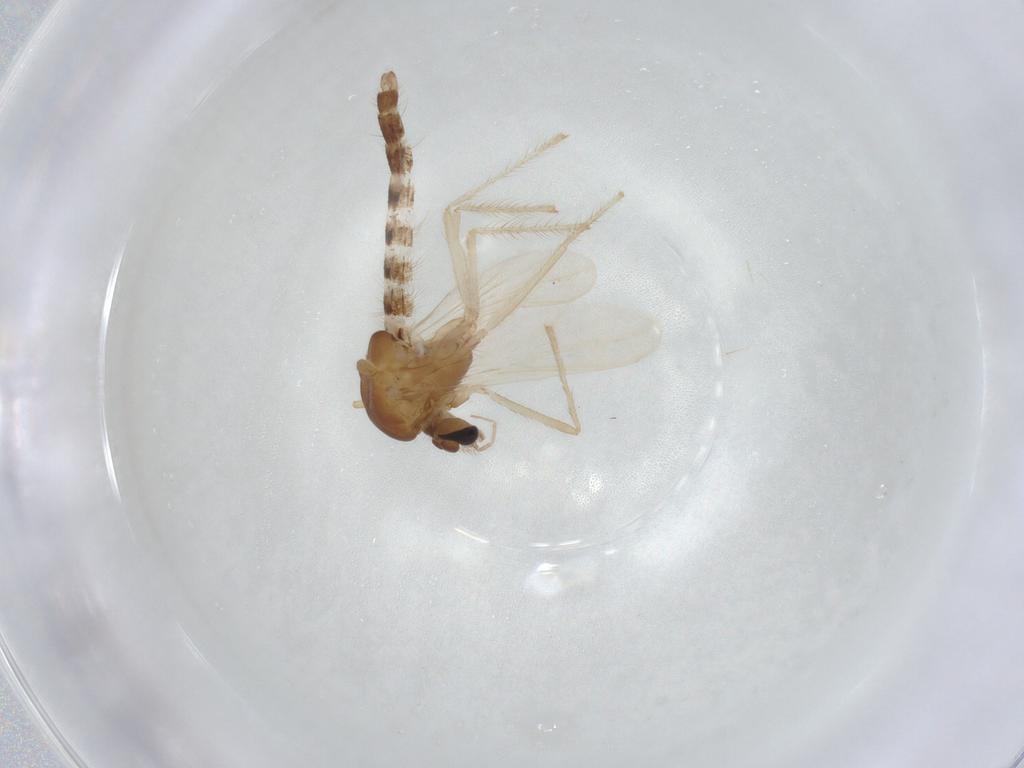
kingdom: Animalia
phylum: Arthropoda
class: Insecta
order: Diptera
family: Chironomidae
